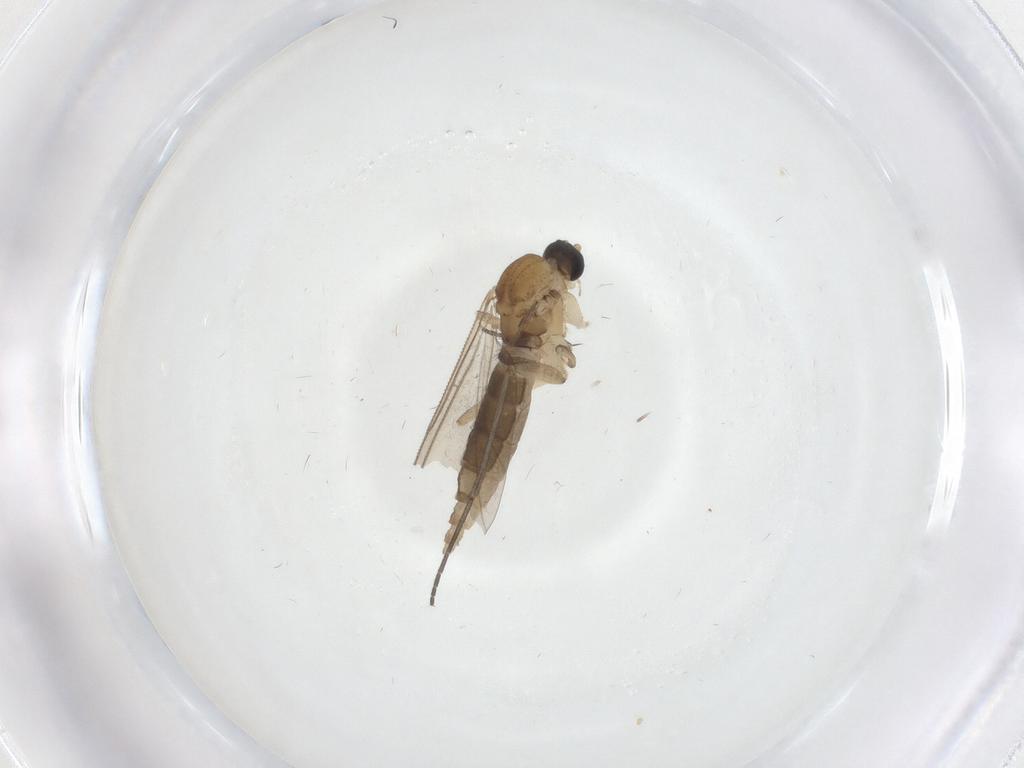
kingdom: Animalia
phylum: Arthropoda
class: Insecta
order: Diptera
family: Sciaridae
